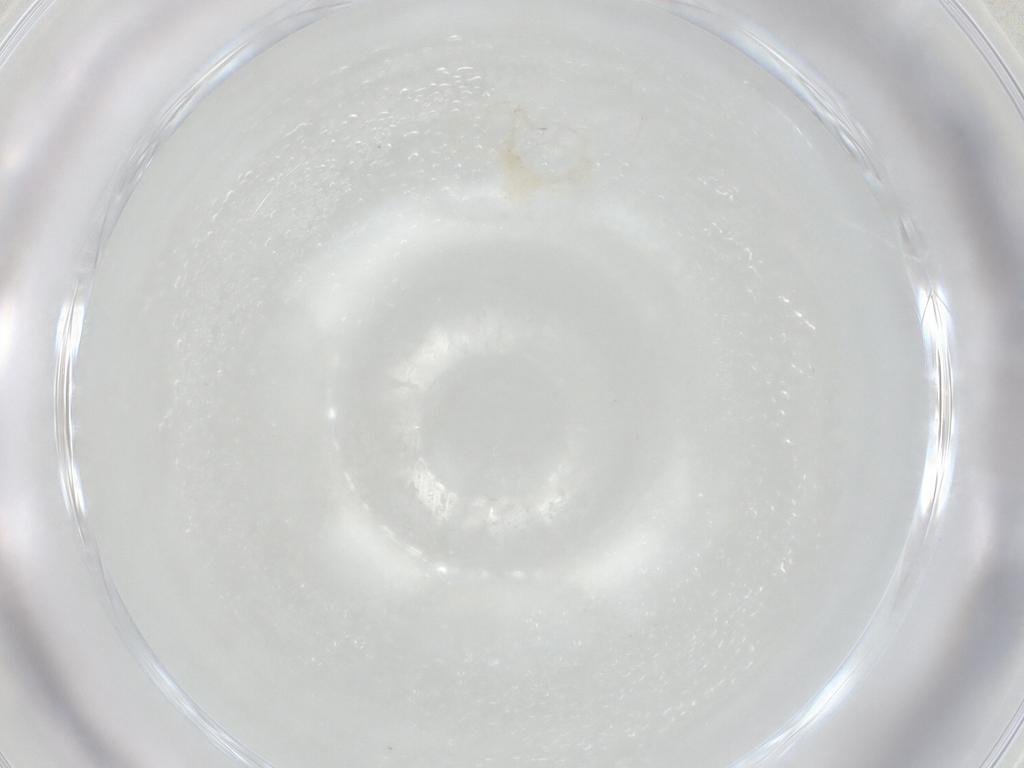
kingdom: Animalia
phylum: Arthropoda
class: Arachnida
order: Trombidiformes
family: Erythraeidae
